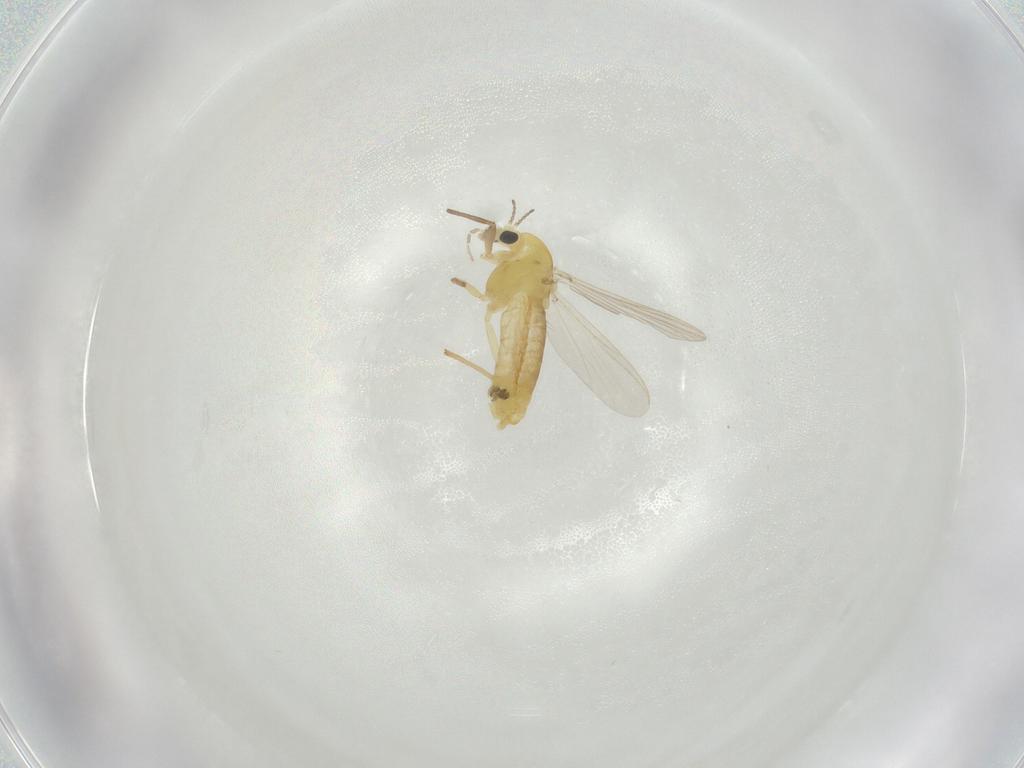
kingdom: Animalia
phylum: Arthropoda
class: Insecta
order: Diptera
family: Chironomidae
